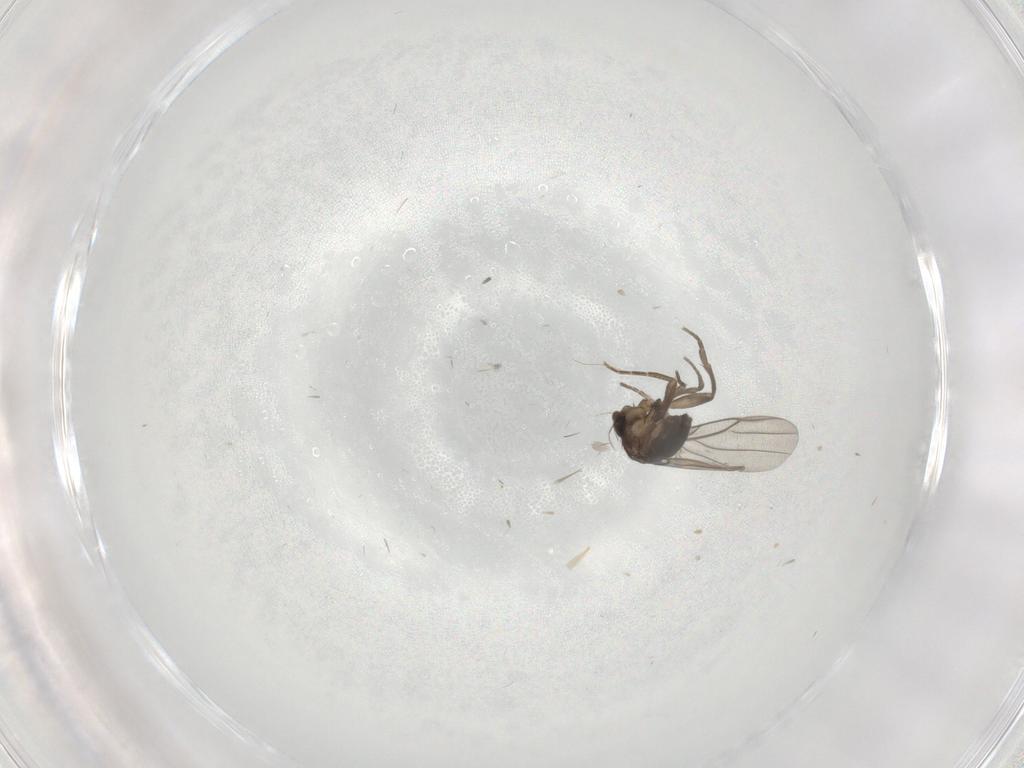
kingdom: Animalia
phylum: Arthropoda
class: Insecta
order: Diptera
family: Phoridae
